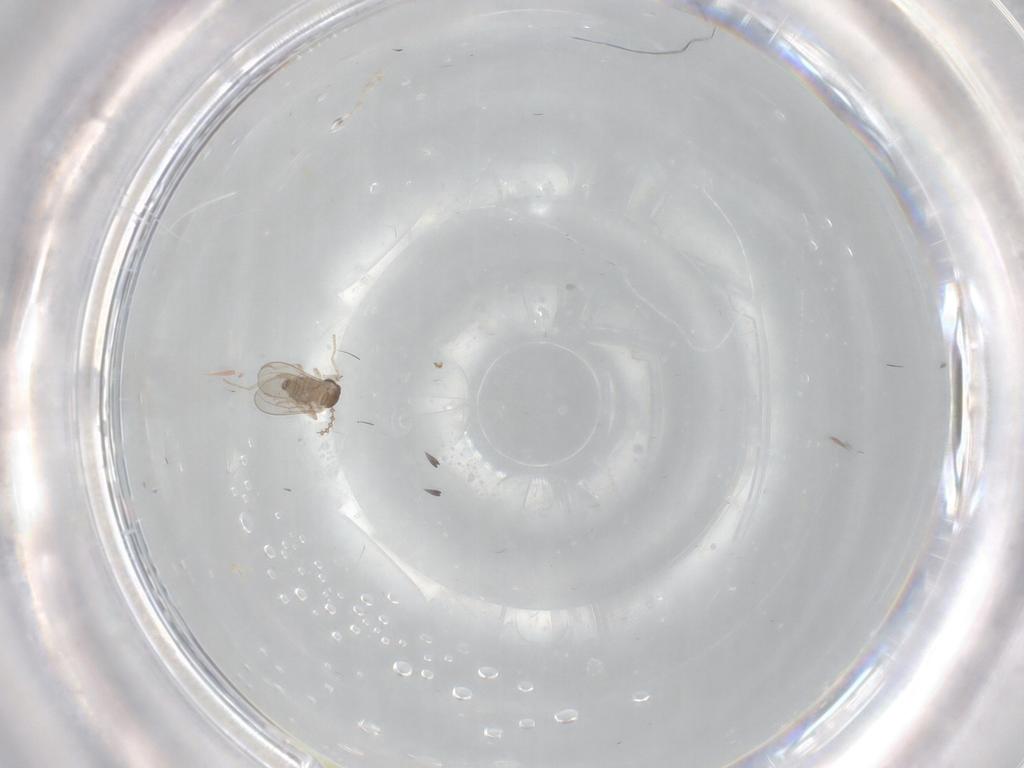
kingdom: Animalia
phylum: Arthropoda
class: Insecta
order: Diptera
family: Cecidomyiidae
